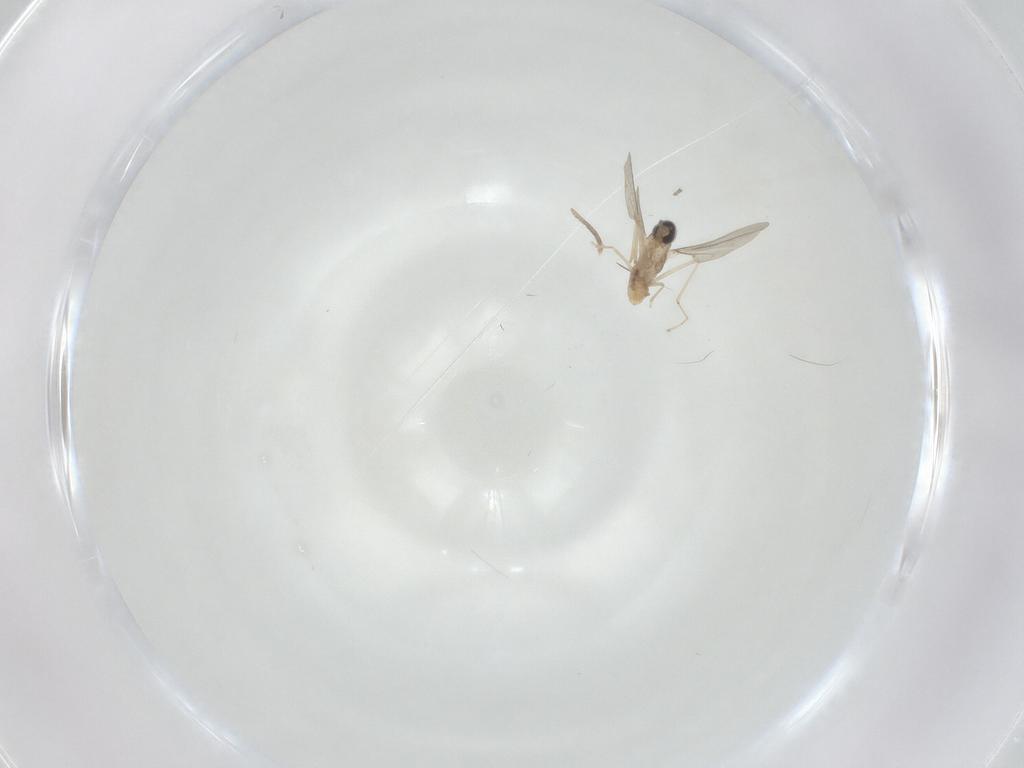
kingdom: Animalia
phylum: Arthropoda
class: Insecta
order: Diptera
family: Cecidomyiidae
